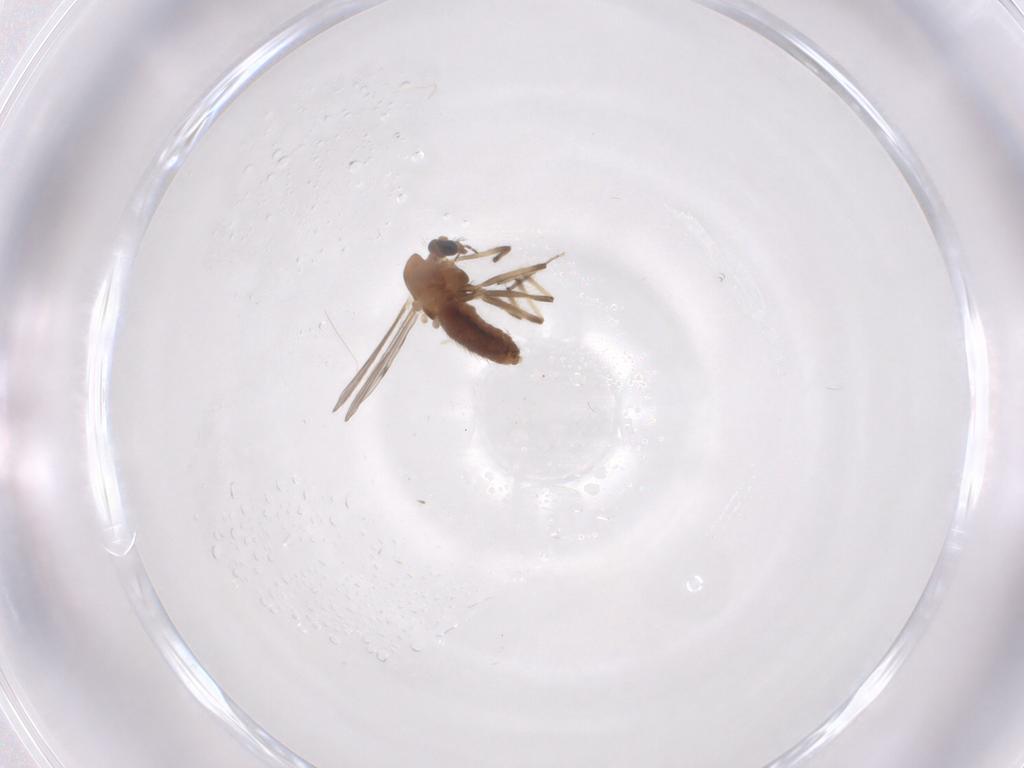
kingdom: Animalia
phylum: Arthropoda
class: Insecta
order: Diptera
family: Chironomidae
